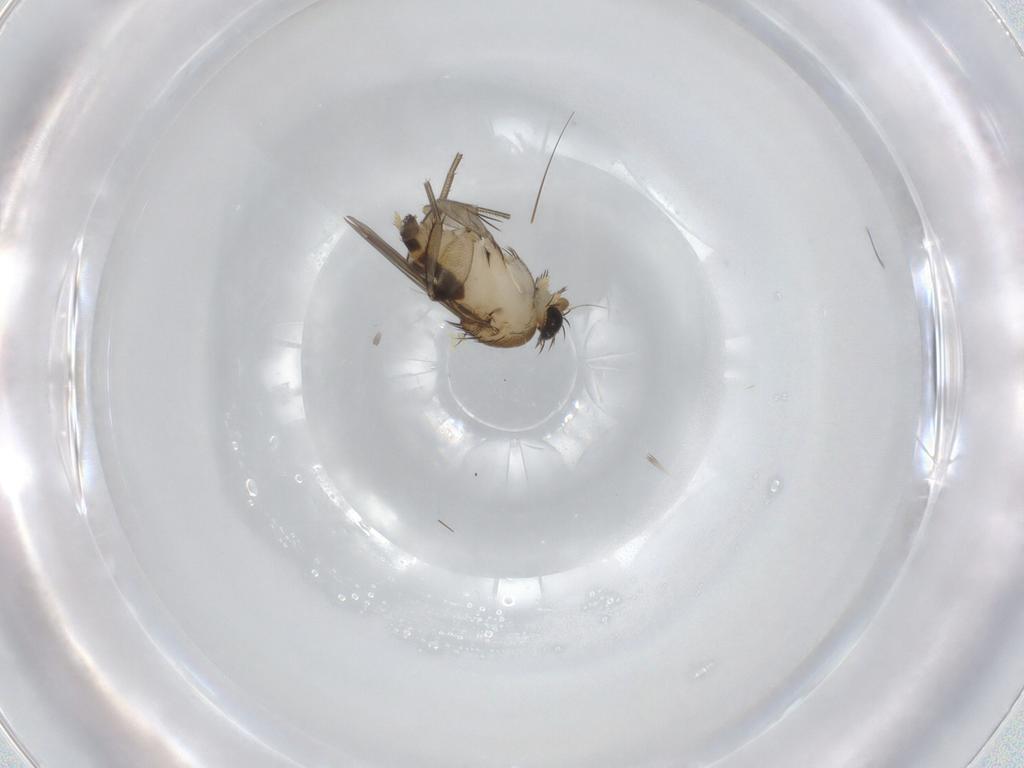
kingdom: Animalia
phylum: Arthropoda
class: Insecta
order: Diptera
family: Phoridae
